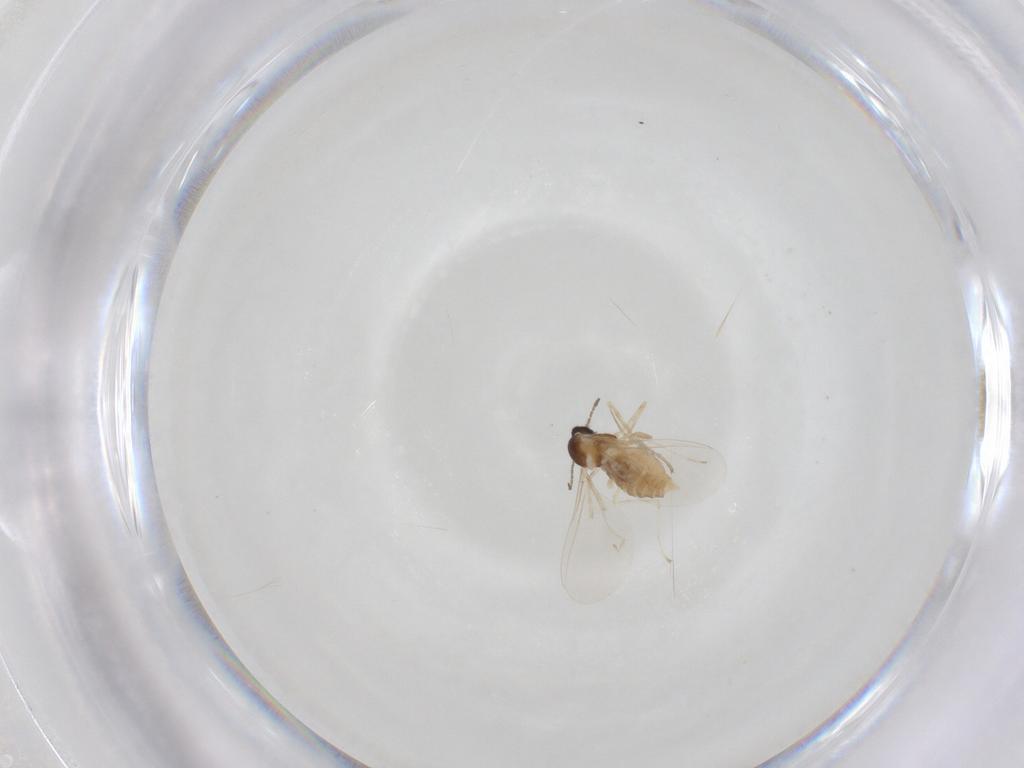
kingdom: Animalia
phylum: Arthropoda
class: Insecta
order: Diptera
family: Cecidomyiidae
